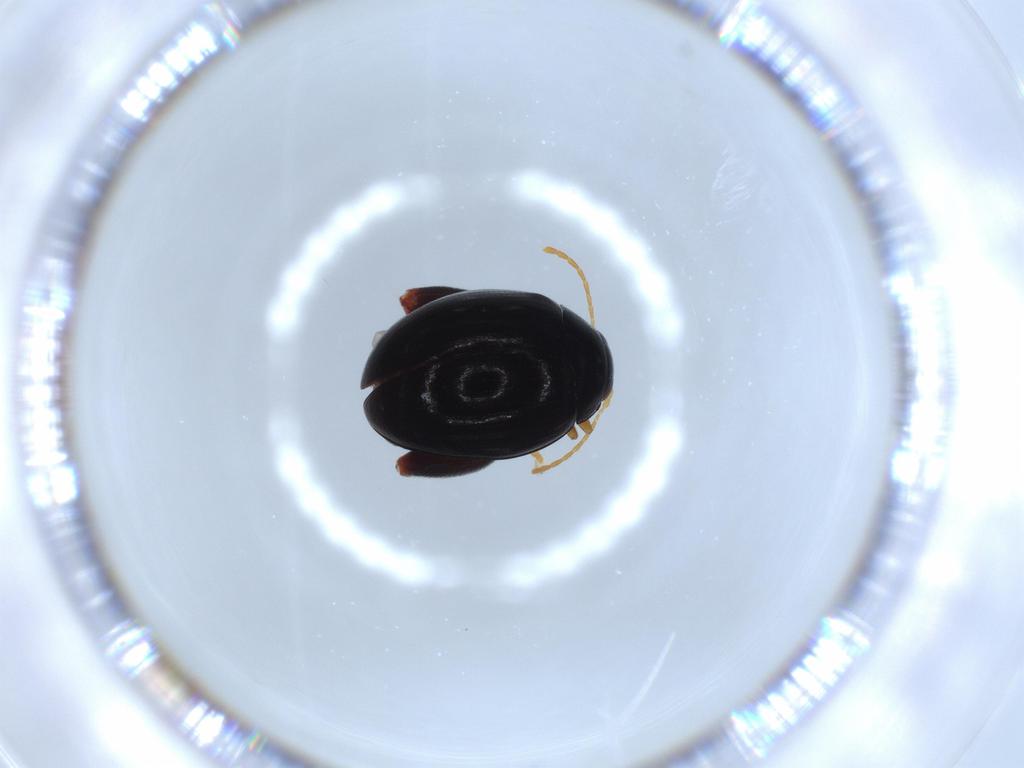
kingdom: Animalia
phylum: Arthropoda
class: Insecta
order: Coleoptera
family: Chrysomelidae
